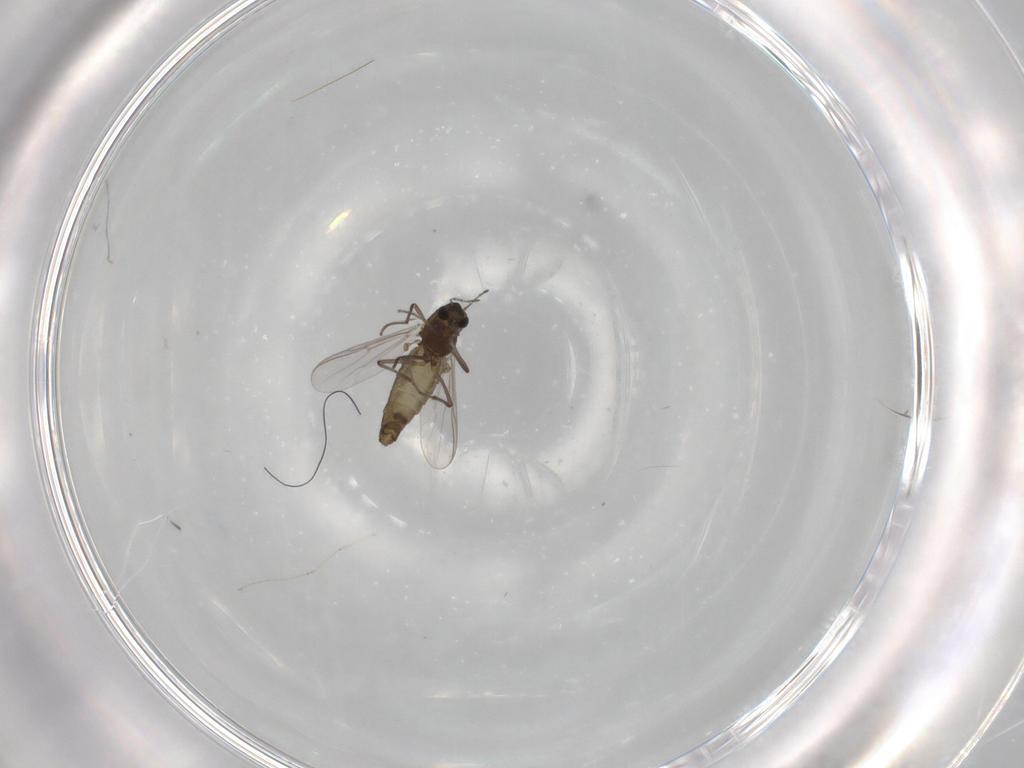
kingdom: Animalia
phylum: Arthropoda
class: Insecta
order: Diptera
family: Chironomidae
